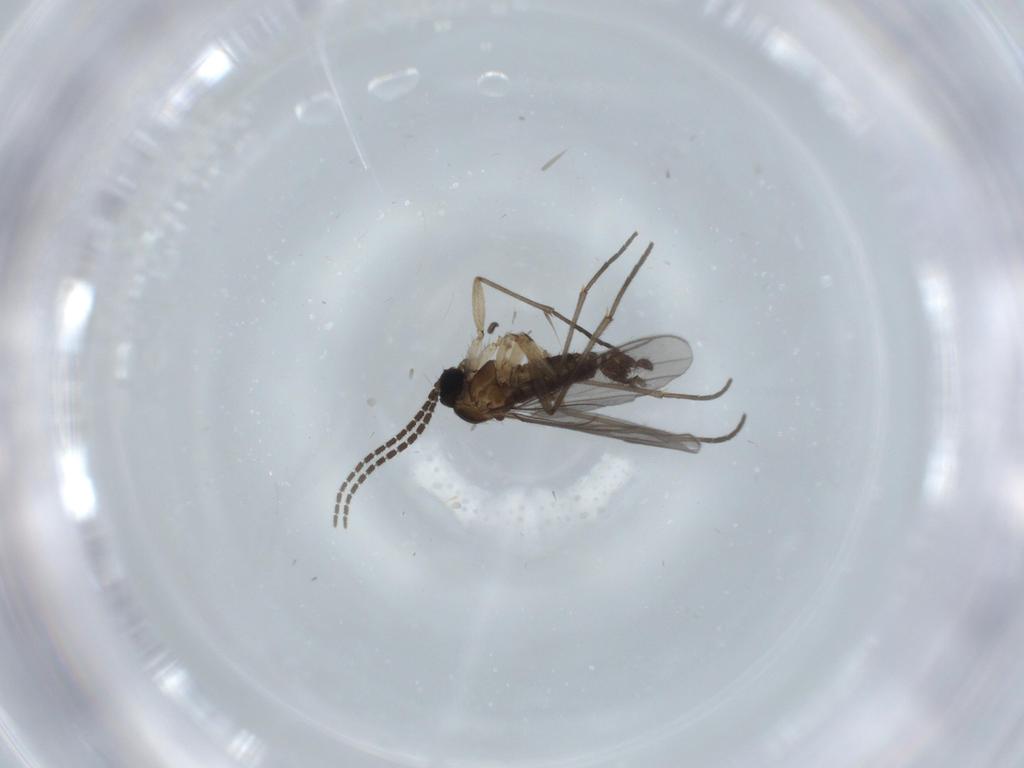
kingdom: Animalia
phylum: Arthropoda
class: Insecta
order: Diptera
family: Sciaridae
